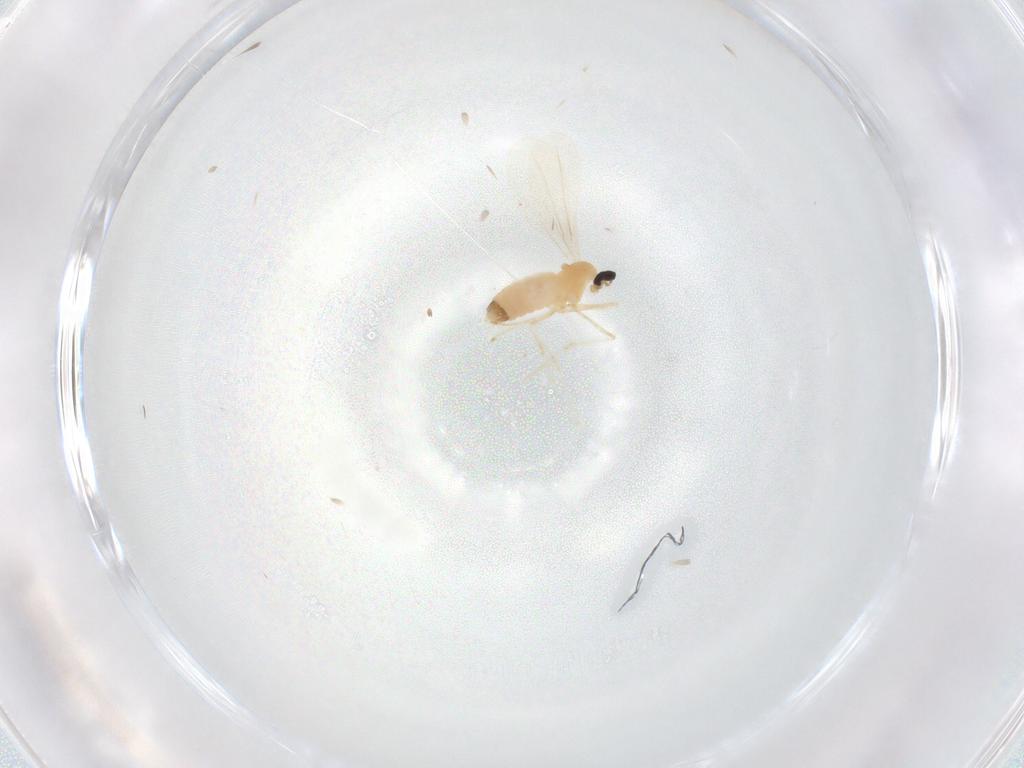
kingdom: Animalia
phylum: Arthropoda
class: Insecta
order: Diptera
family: Cecidomyiidae
